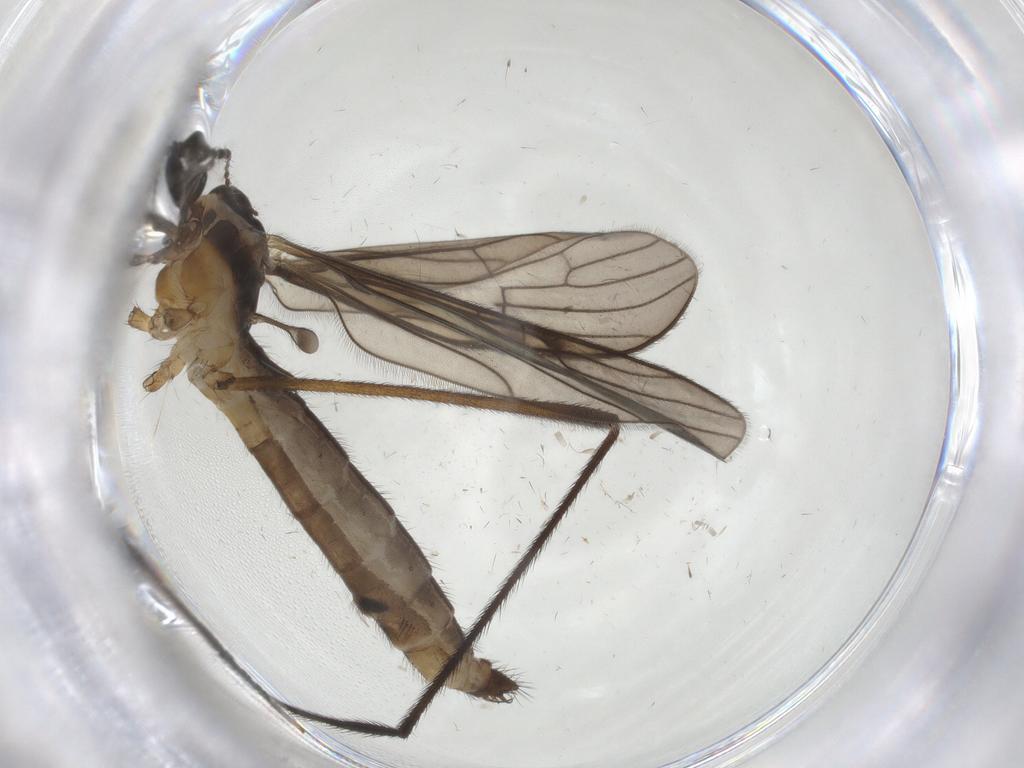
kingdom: Animalia
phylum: Arthropoda
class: Insecta
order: Diptera
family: Limoniidae
